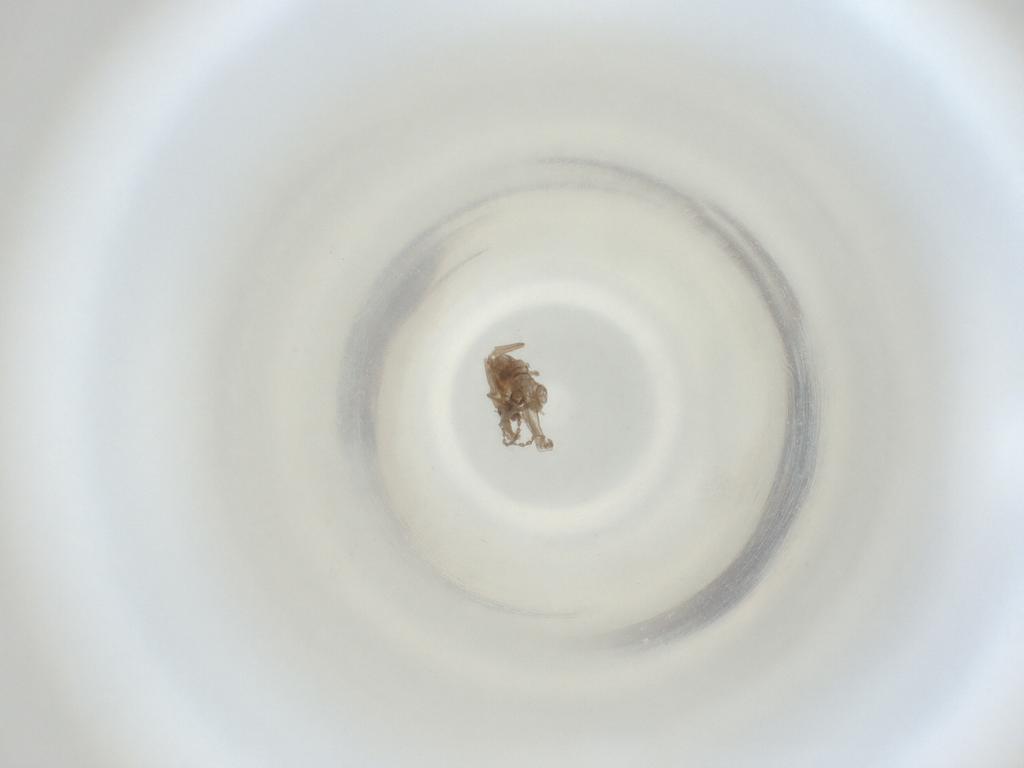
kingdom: Animalia
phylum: Arthropoda
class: Insecta
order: Diptera
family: Cecidomyiidae
